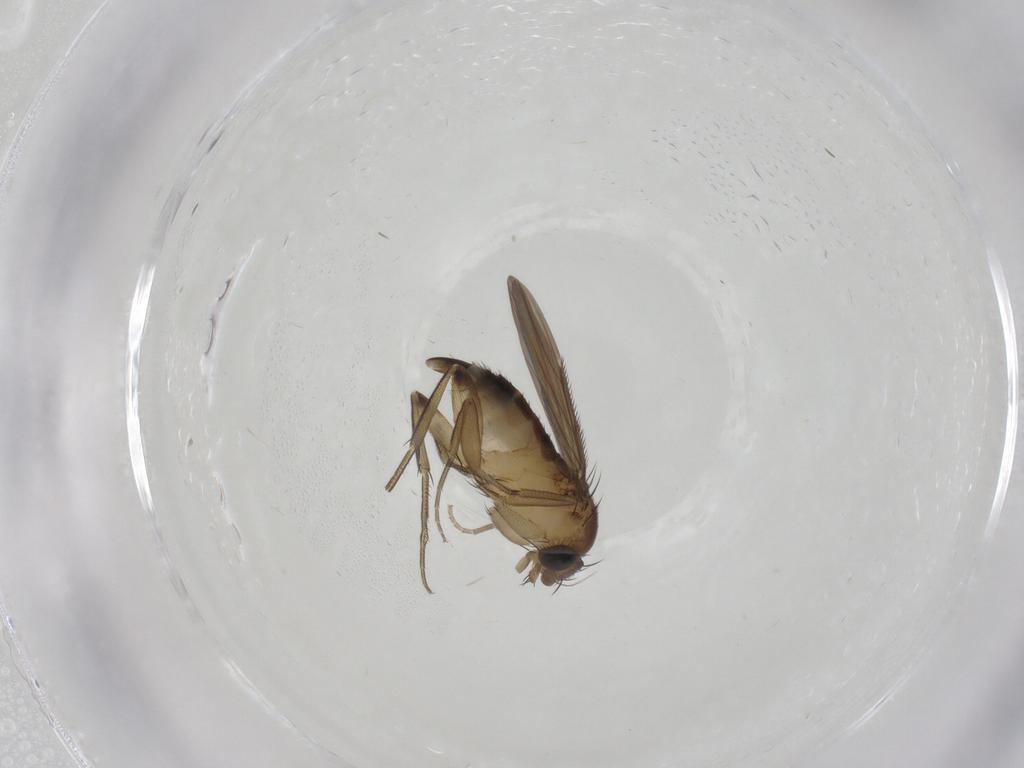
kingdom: Animalia
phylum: Arthropoda
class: Insecta
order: Diptera
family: Phoridae
